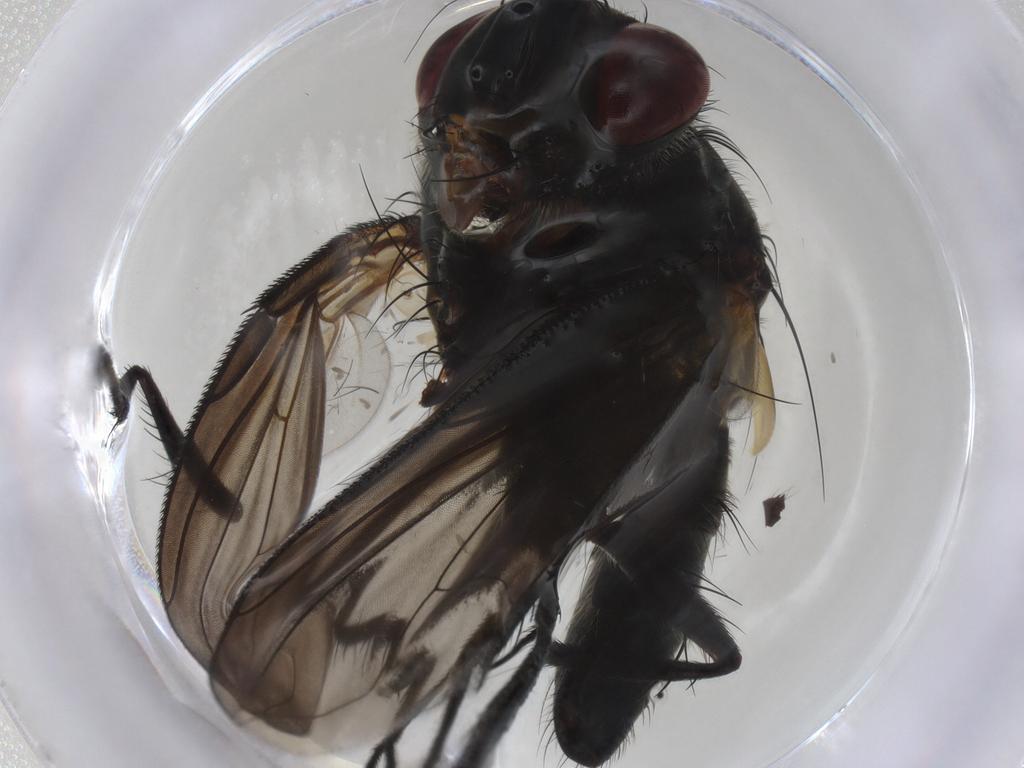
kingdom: Animalia
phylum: Arthropoda
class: Insecta
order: Diptera
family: Tachinidae
